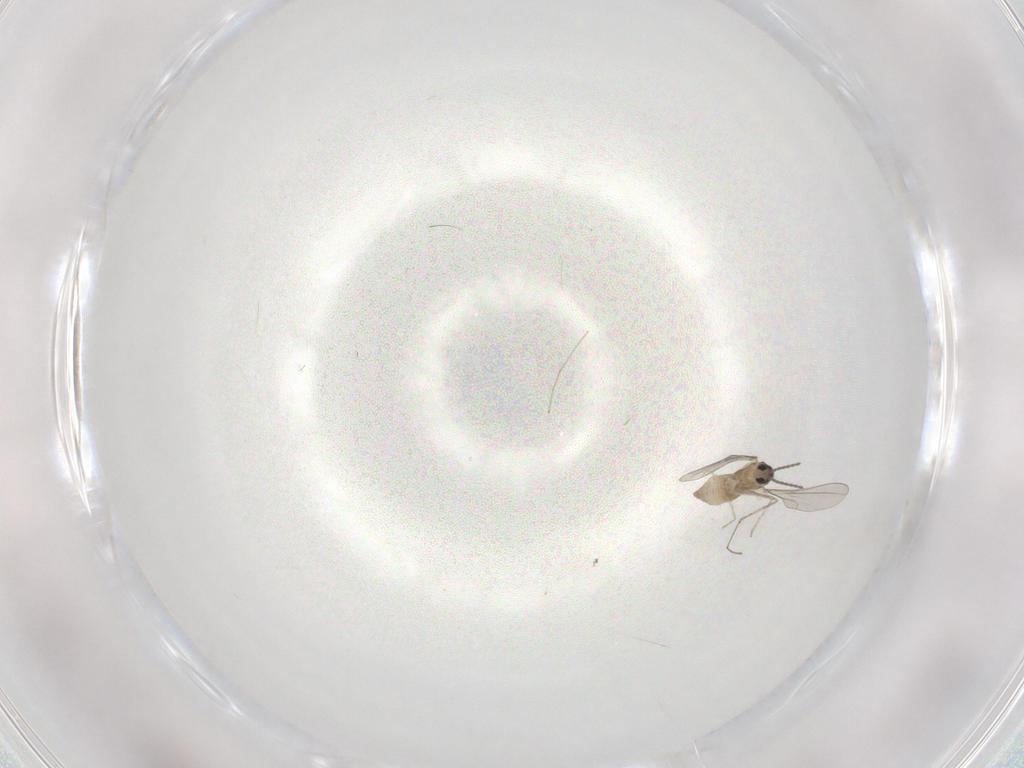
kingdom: Animalia
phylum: Arthropoda
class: Insecta
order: Diptera
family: Cecidomyiidae
